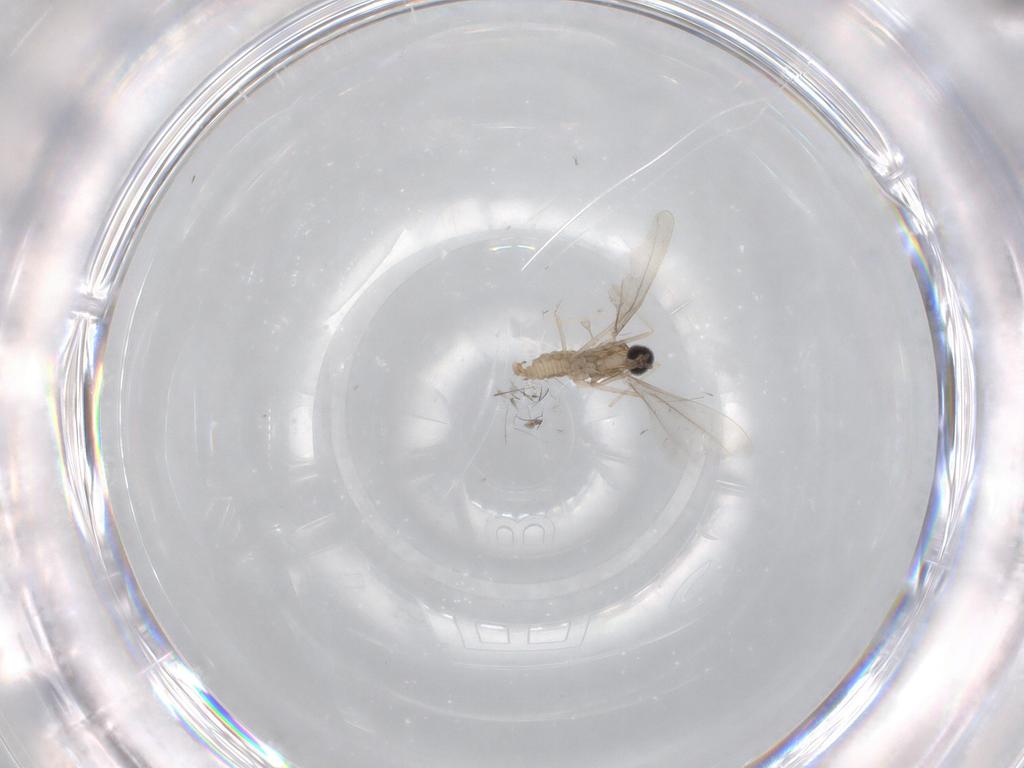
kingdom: Animalia
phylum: Arthropoda
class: Insecta
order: Diptera
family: Cecidomyiidae
